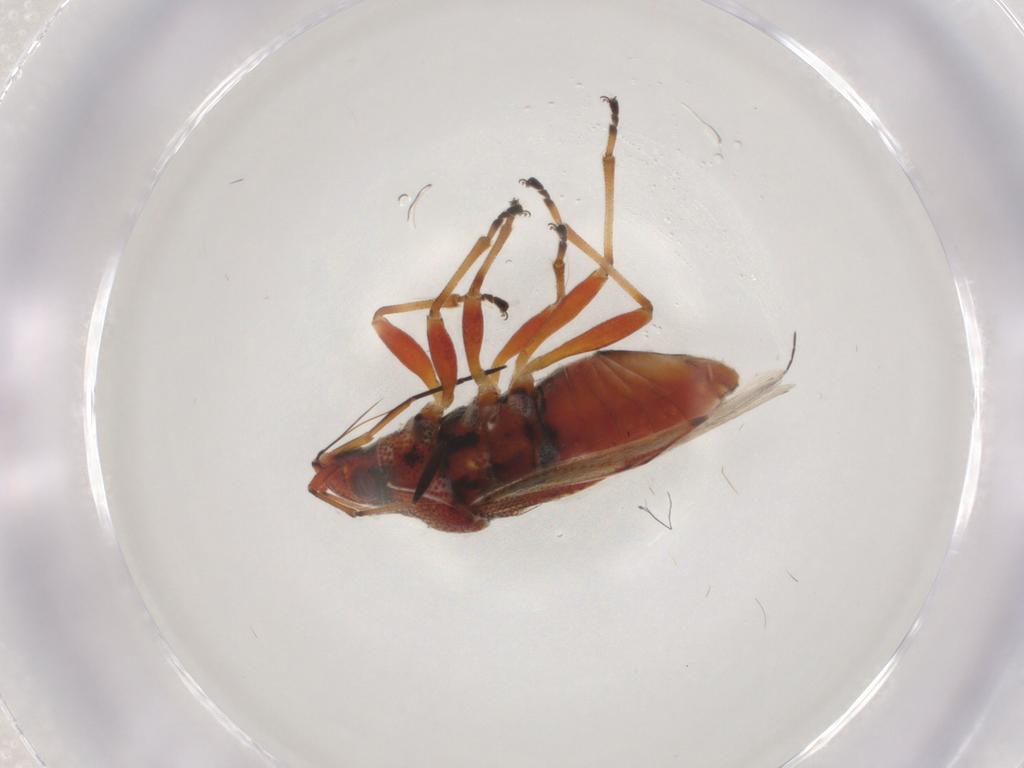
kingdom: Animalia
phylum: Arthropoda
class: Insecta
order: Hemiptera
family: Lygaeidae
